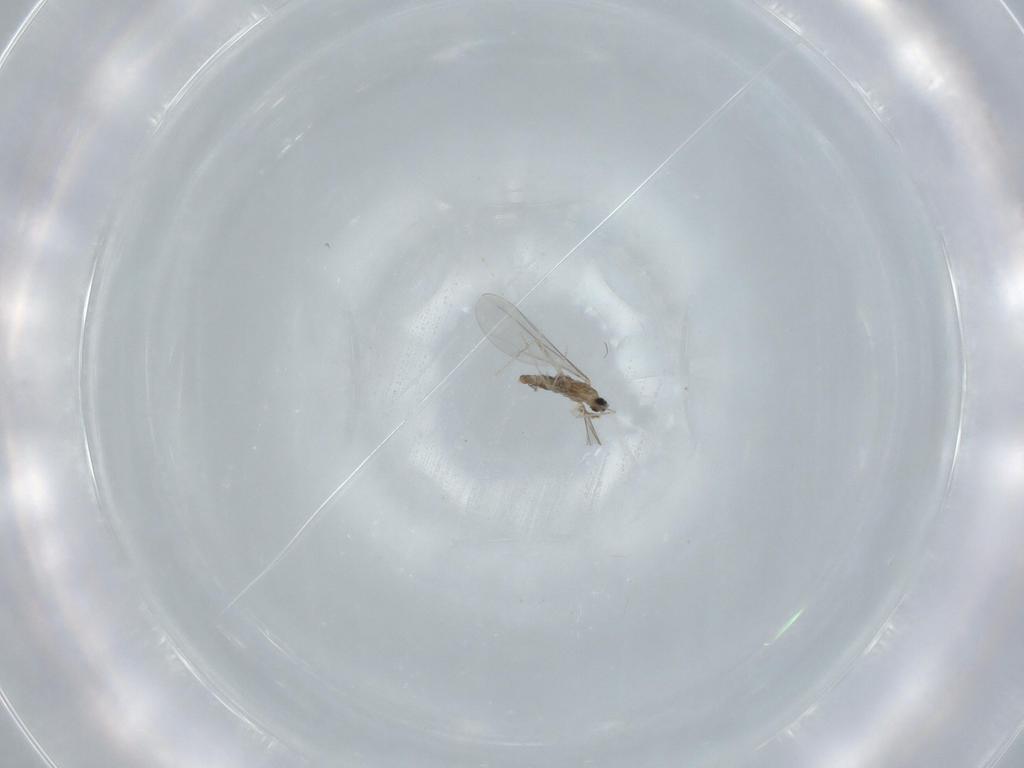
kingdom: Animalia
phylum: Arthropoda
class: Insecta
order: Diptera
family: Cecidomyiidae
